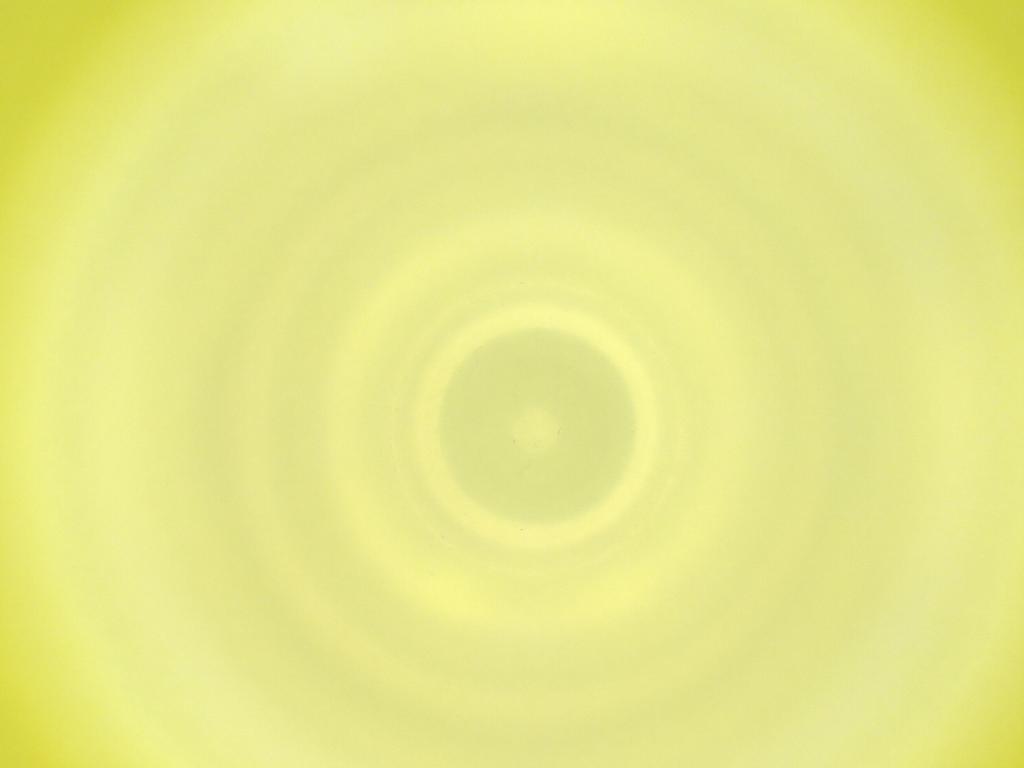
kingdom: Animalia
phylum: Arthropoda
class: Insecta
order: Diptera
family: Cecidomyiidae
